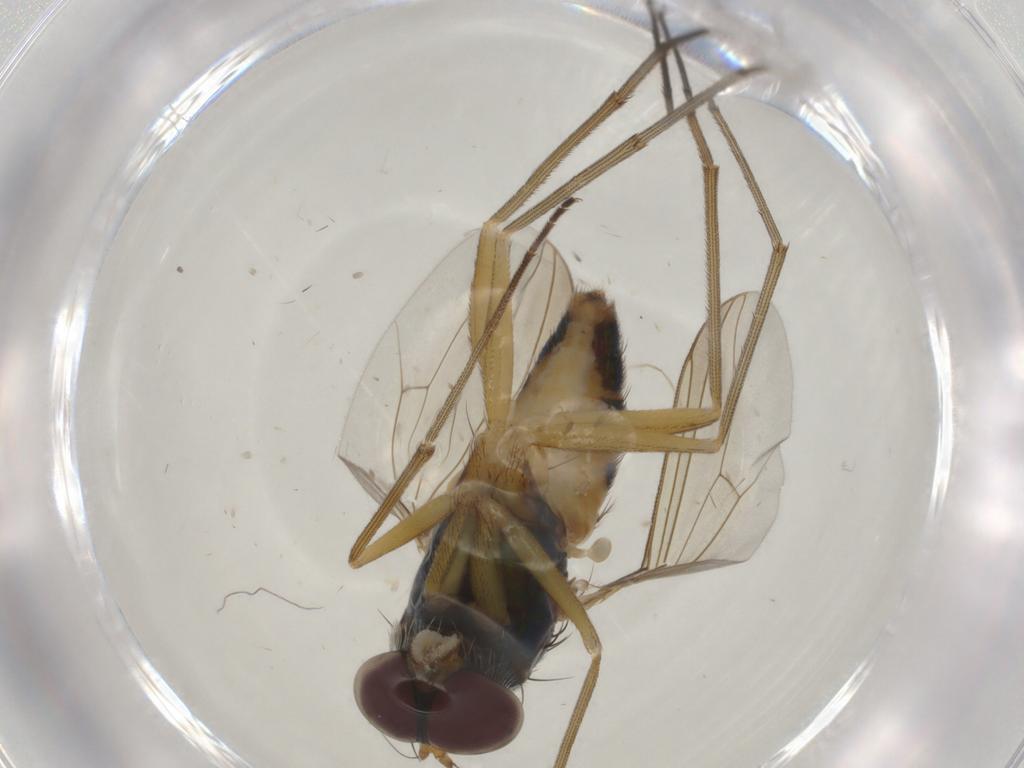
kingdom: Animalia
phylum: Arthropoda
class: Insecta
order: Diptera
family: Dolichopodidae
